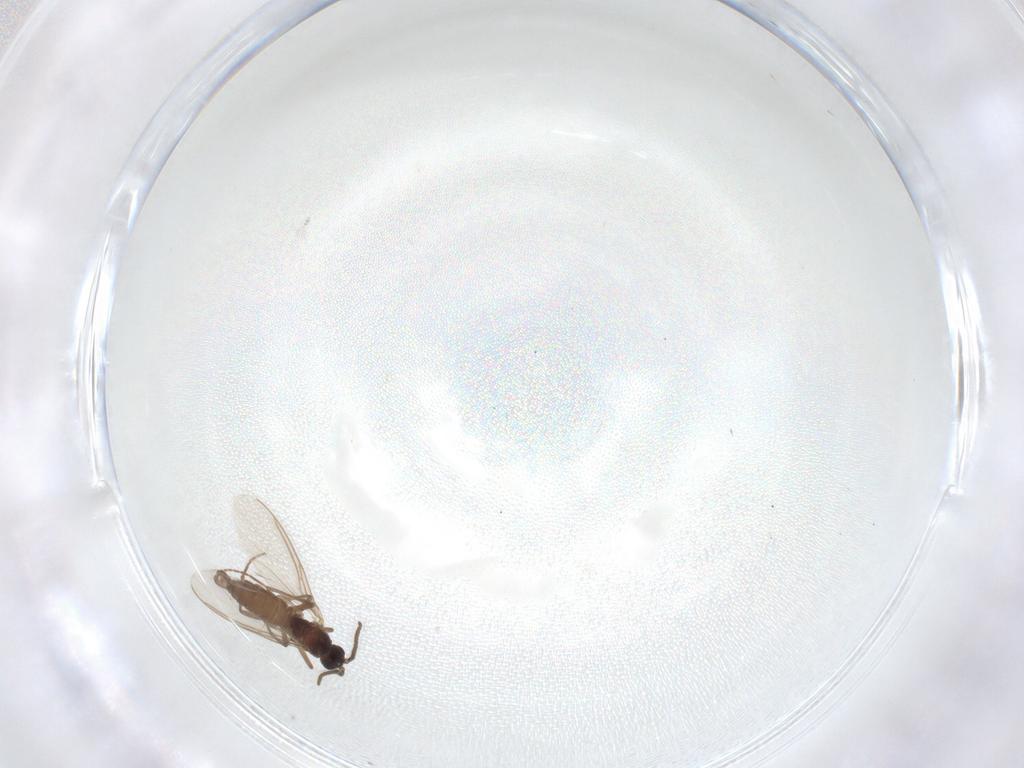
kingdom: Animalia
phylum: Arthropoda
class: Insecta
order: Diptera
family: Sciaridae
